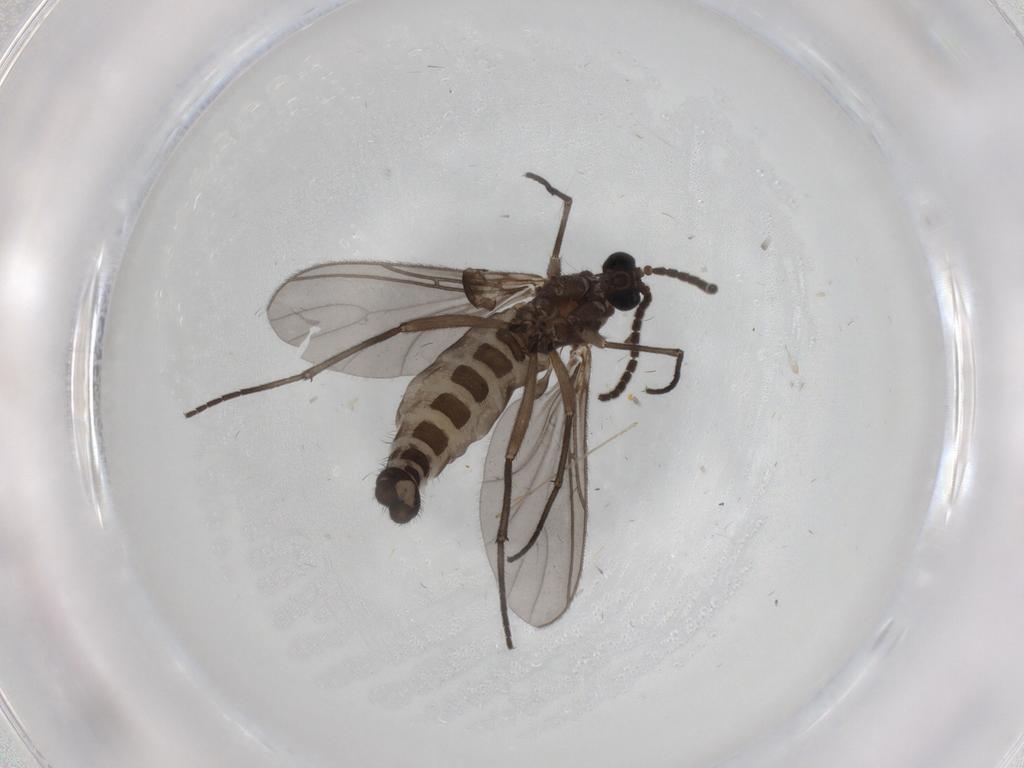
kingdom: Animalia
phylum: Arthropoda
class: Insecta
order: Diptera
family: Sciaridae
